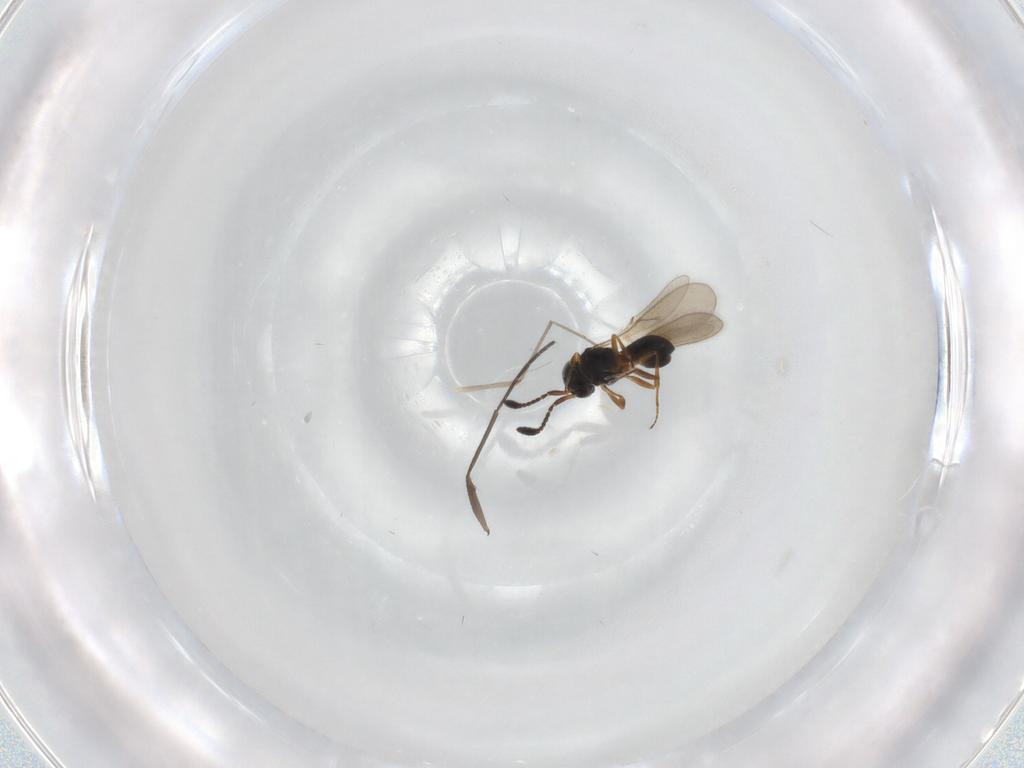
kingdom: Animalia
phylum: Arthropoda
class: Insecta
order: Hymenoptera
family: Scelionidae
